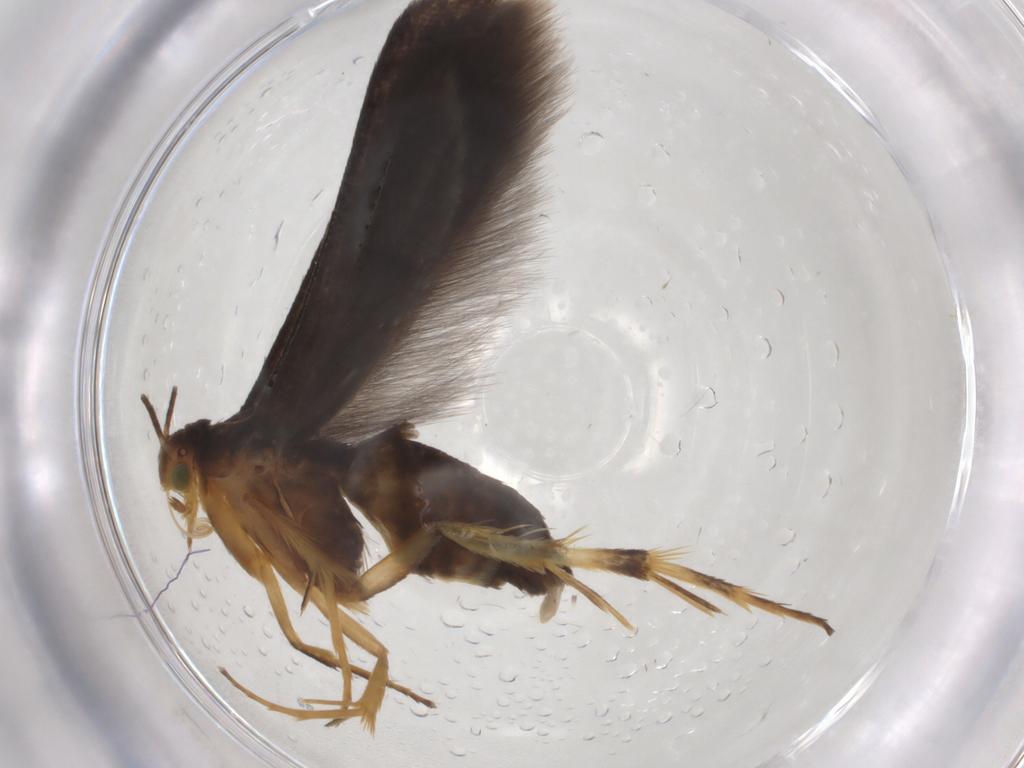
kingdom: Animalia
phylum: Arthropoda
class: Insecta
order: Lepidoptera
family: Oecophoridae
